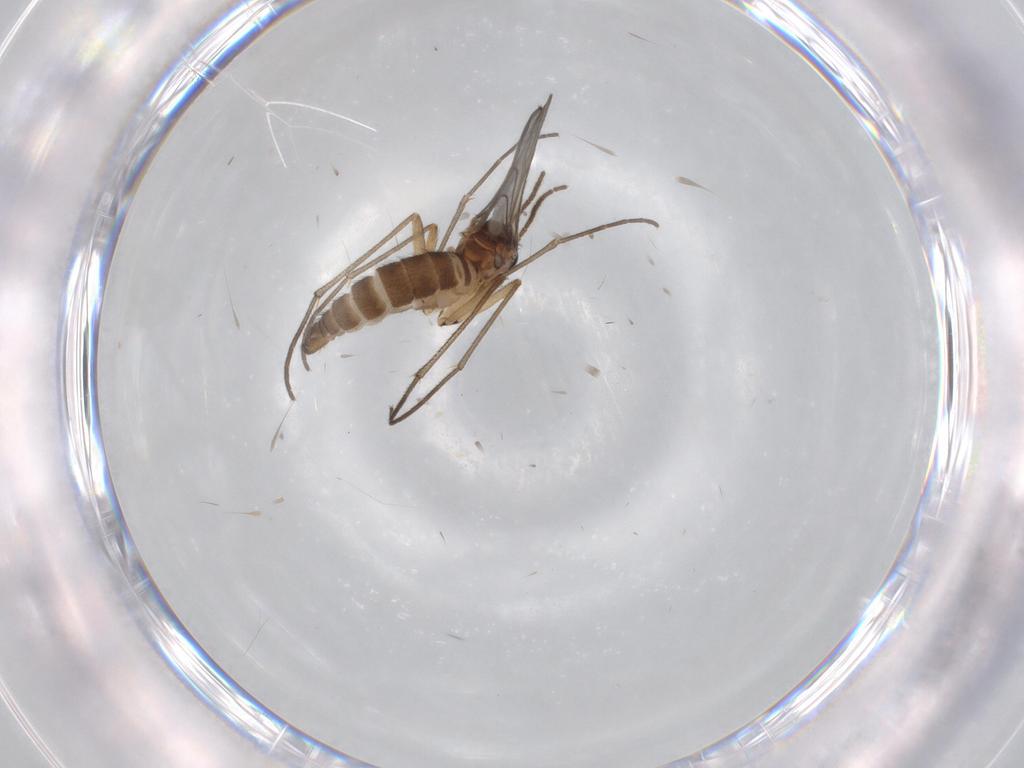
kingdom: Animalia
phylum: Arthropoda
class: Insecta
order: Diptera
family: Sciaridae
